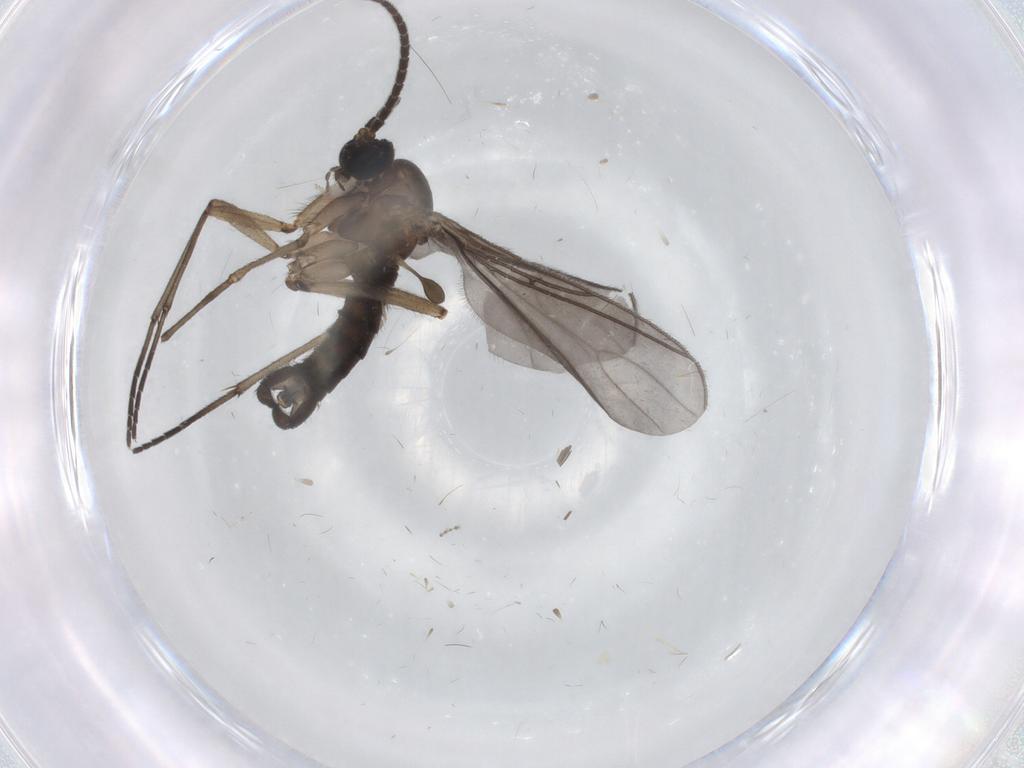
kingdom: Animalia
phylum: Arthropoda
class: Insecta
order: Diptera
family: Sciaridae
